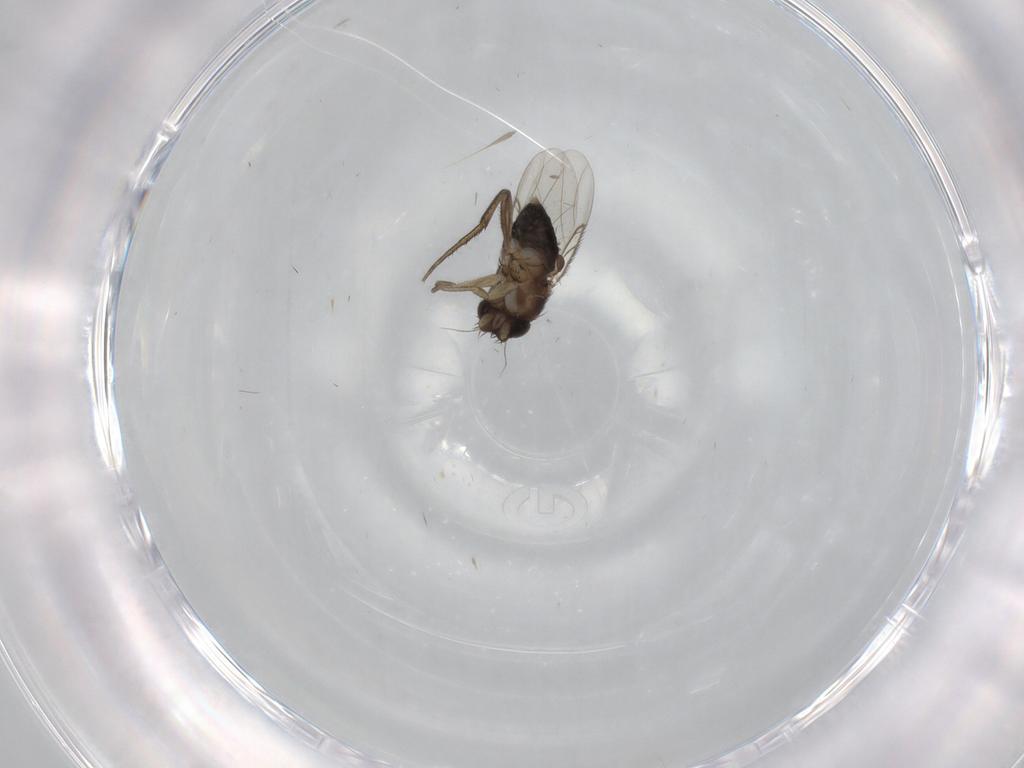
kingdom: Animalia
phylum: Arthropoda
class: Insecta
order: Diptera
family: Phoridae
